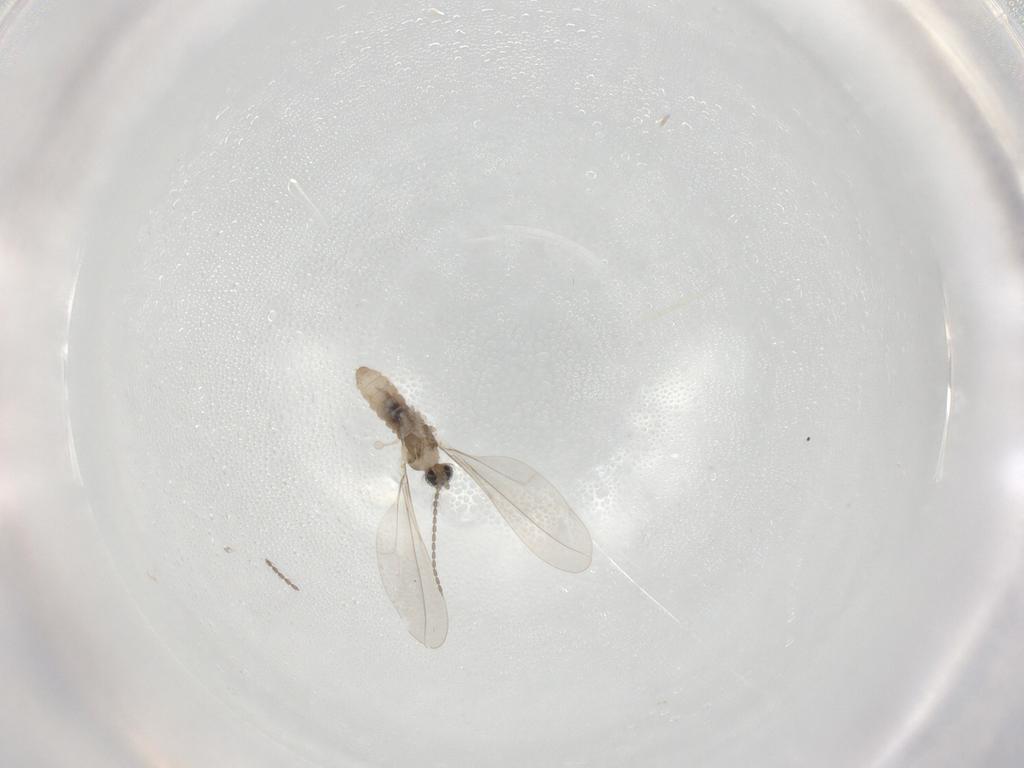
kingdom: Animalia
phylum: Arthropoda
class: Insecta
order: Diptera
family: Cecidomyiidae
